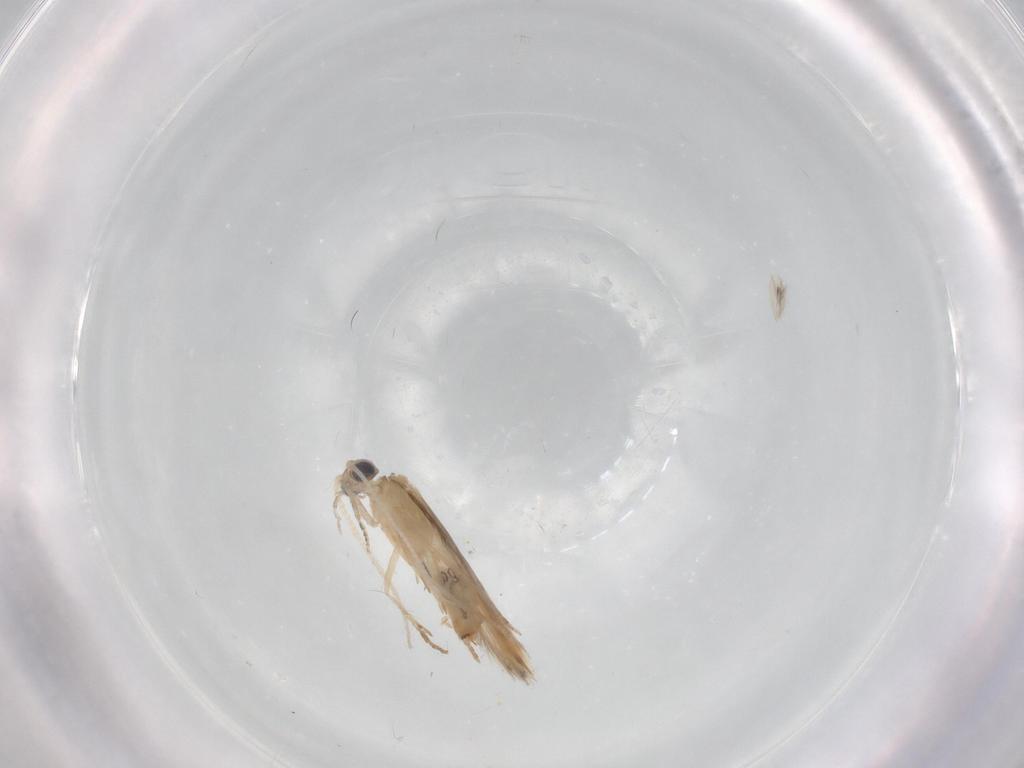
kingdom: Animalia
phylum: Arthropoda
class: Insecta
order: Trichoptera
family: Hydroptilidae
